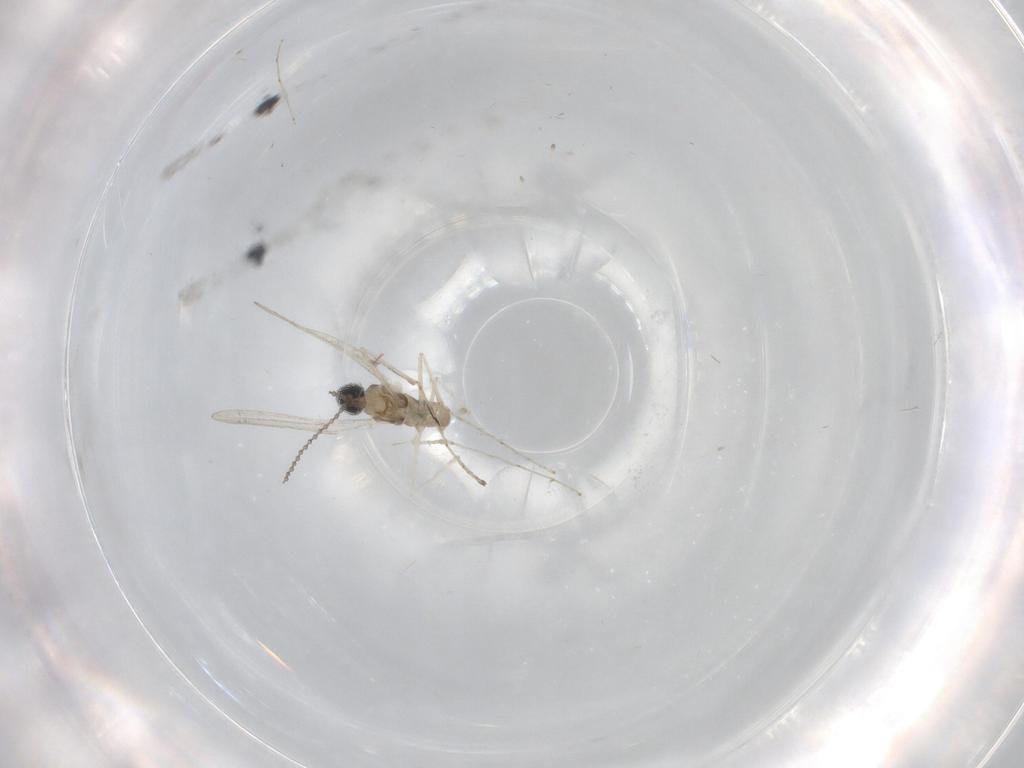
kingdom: Animalia
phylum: Arthropoda
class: Insecta
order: Diptera
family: Cecidomyiidae
